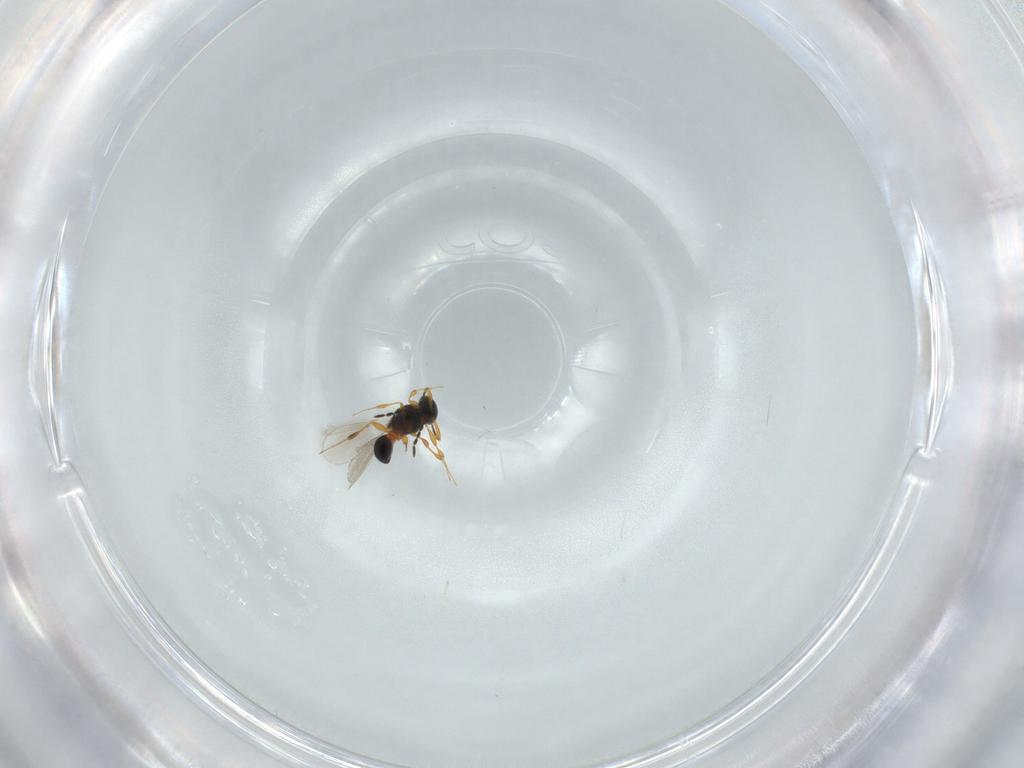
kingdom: Animalia
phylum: Arthropoda
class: Insecta
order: Hymenoptera
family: Platygastridae
